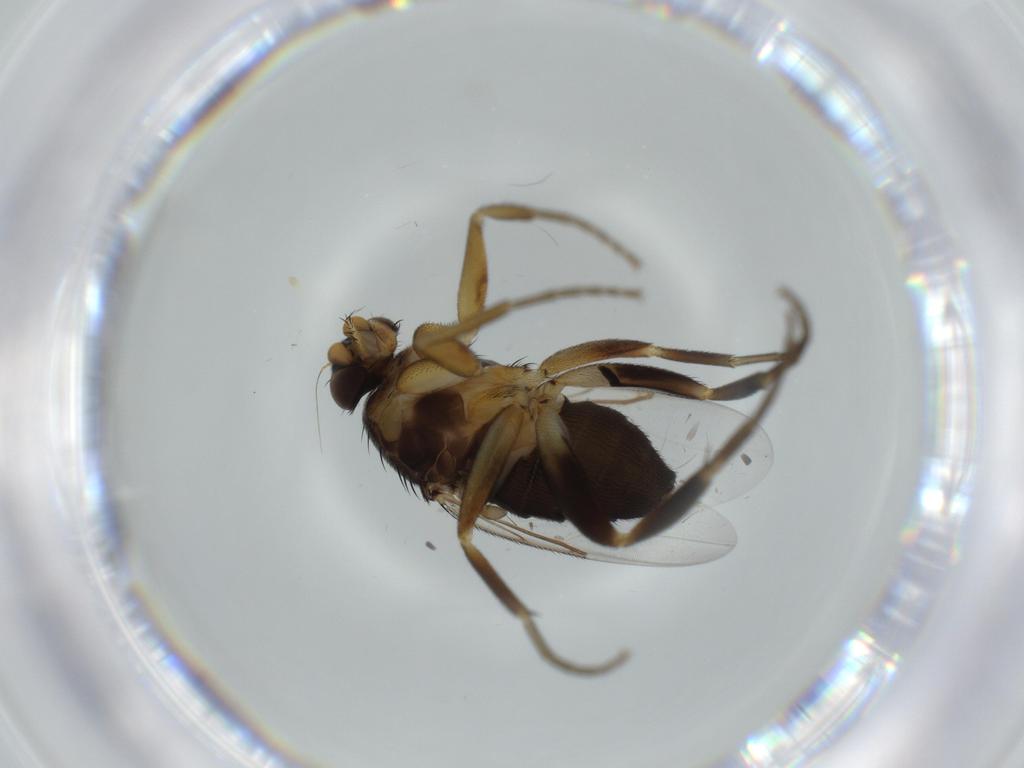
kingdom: Animalia
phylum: Arthropoda
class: Insecta
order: Diptera
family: Phoridae
